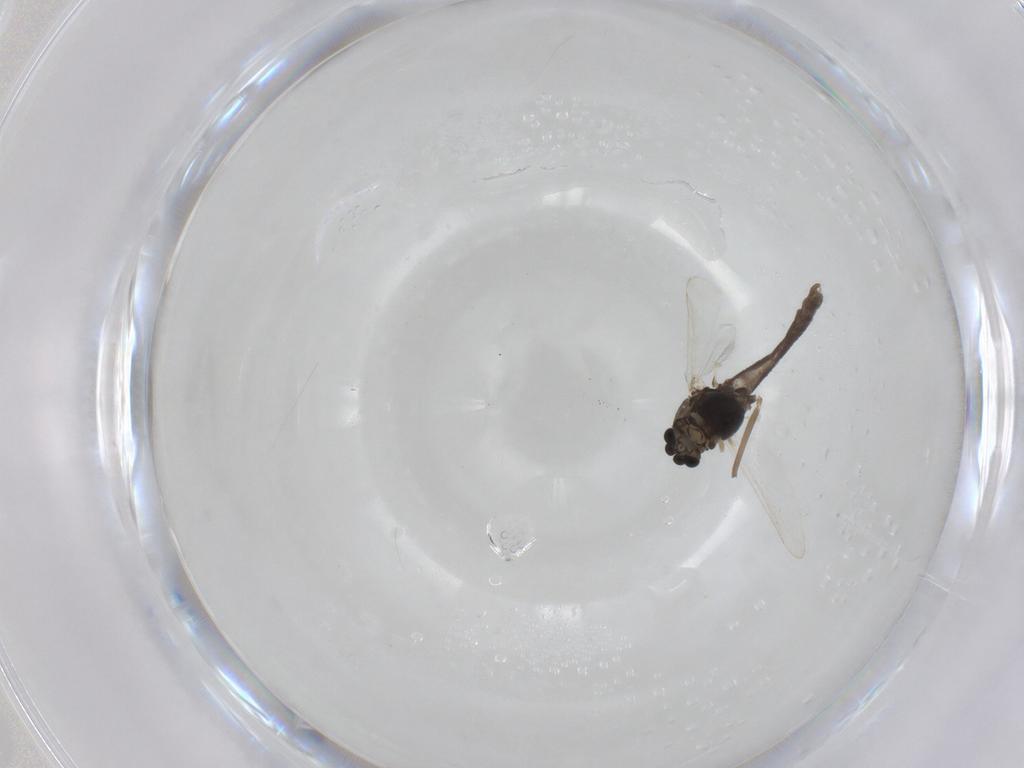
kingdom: Animalia
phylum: Arthropoda
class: Insecta
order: Diptera
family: Chironomidae
